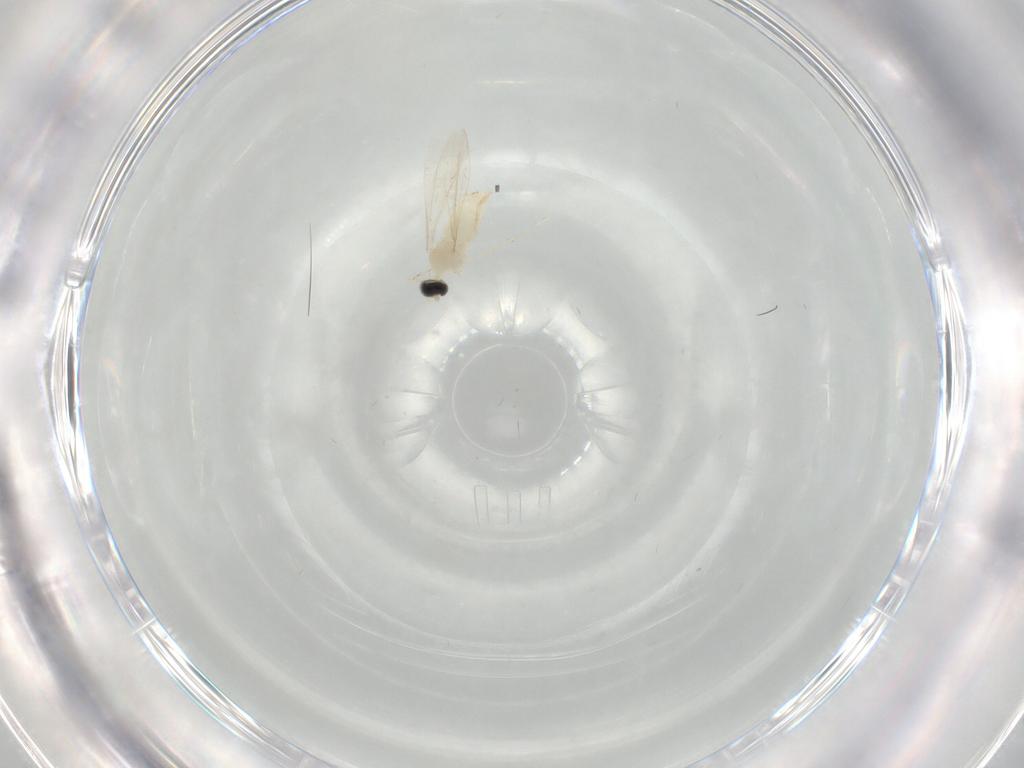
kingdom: Animalia
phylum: Arthropoda
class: Insecta
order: Diptera
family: Cecidomyiidae
